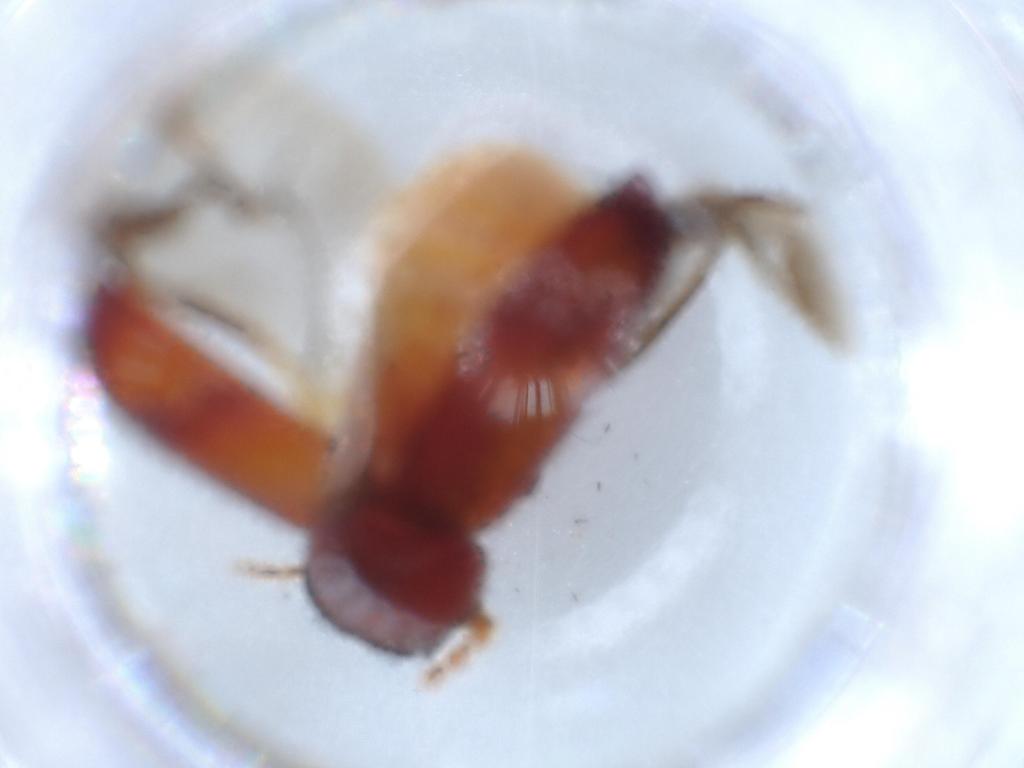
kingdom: Animalia
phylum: Arthropoda
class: Insecta
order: Coleoptera
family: Bostrichidae
